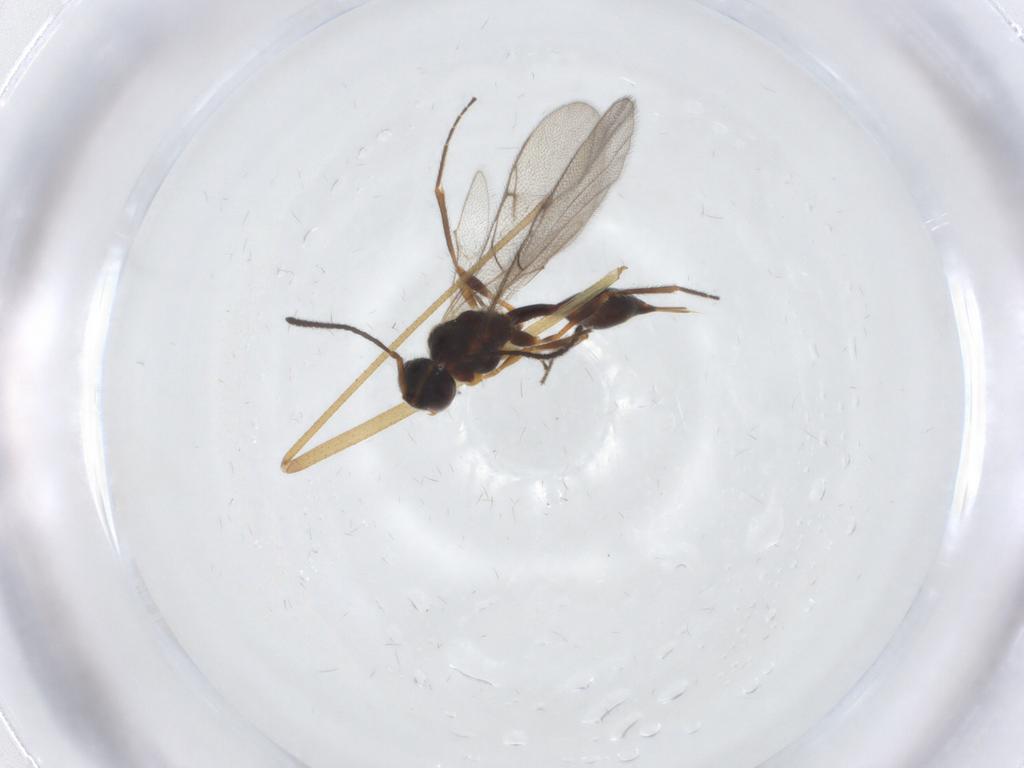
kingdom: Animalia
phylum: Arthropoda
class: Insecta
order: Hymenoptera
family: Diapriidae
